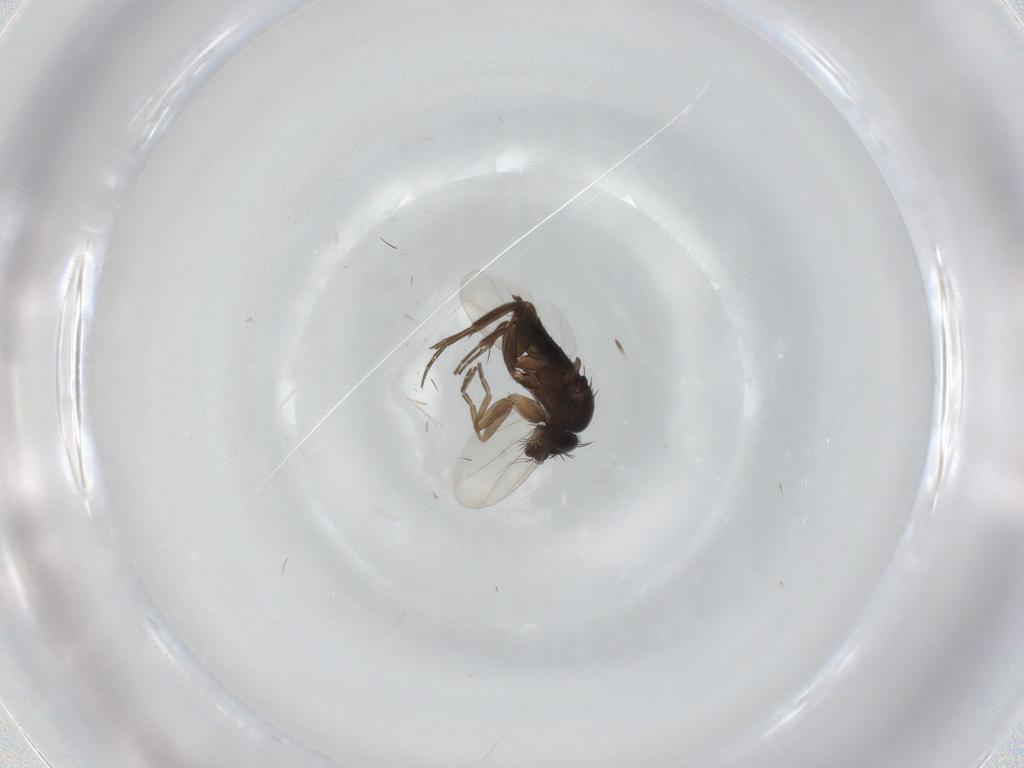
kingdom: Animalia
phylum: Arthropoda
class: Insecta
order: Diptera
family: Phoridae
